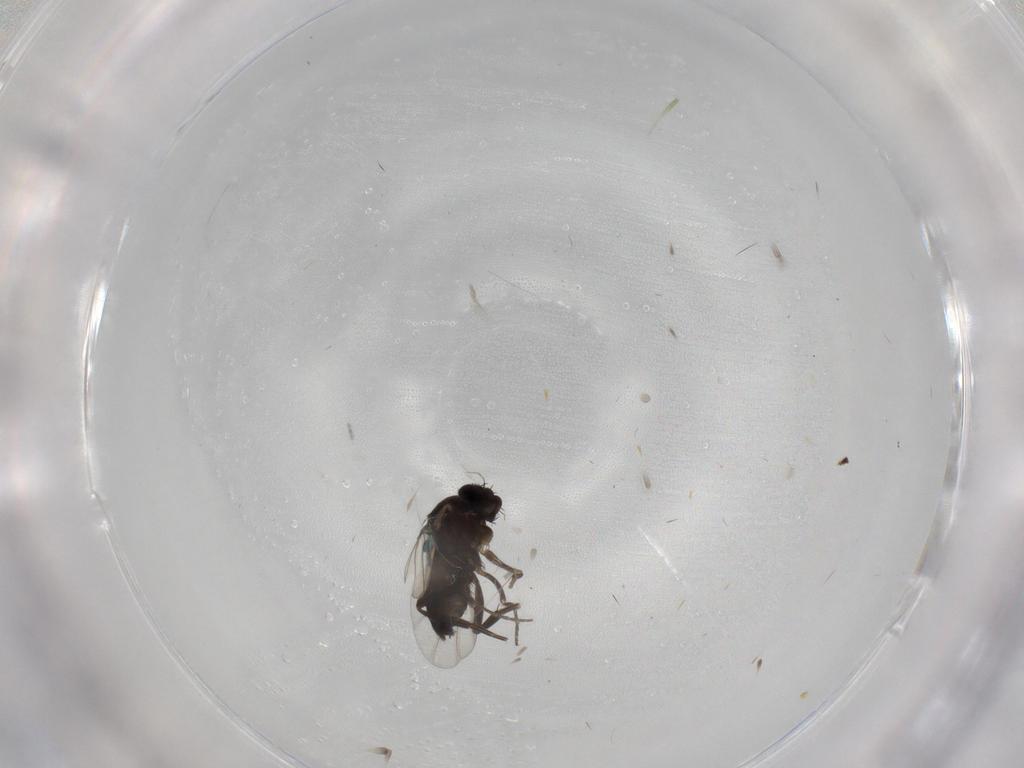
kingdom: Animalia
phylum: Arthropoda
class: Insecta
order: Diptera
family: Phoridae
